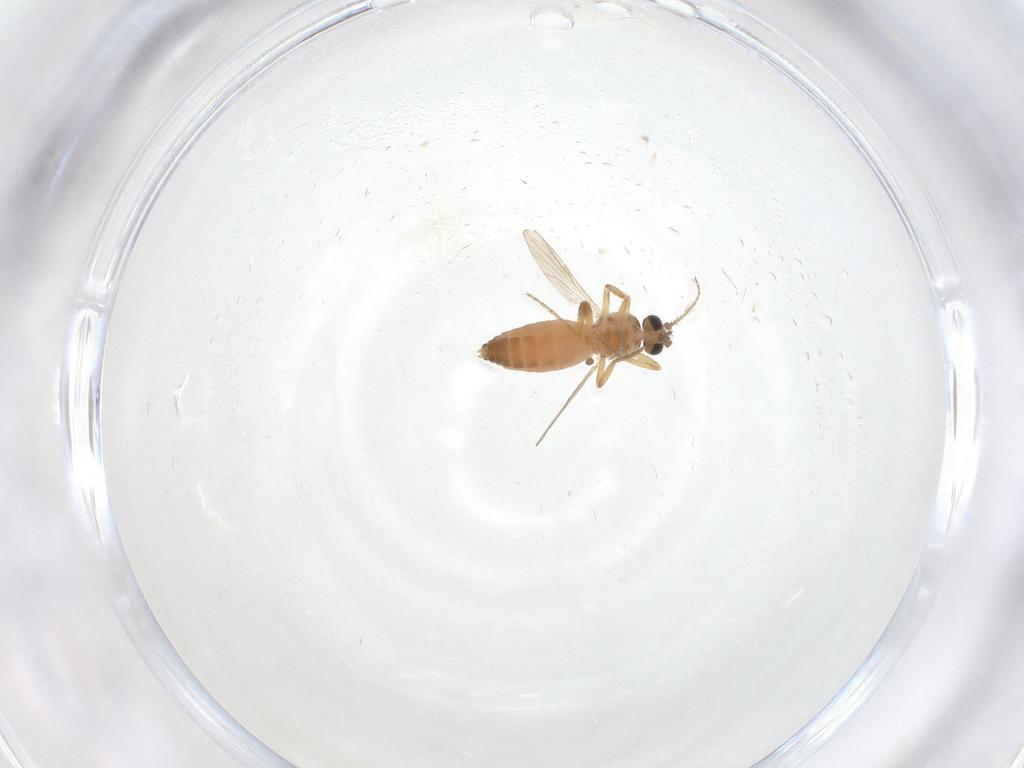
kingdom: Animalia
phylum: Arthropoda
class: Insecta
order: Diptera
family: Ceratopogonidae
